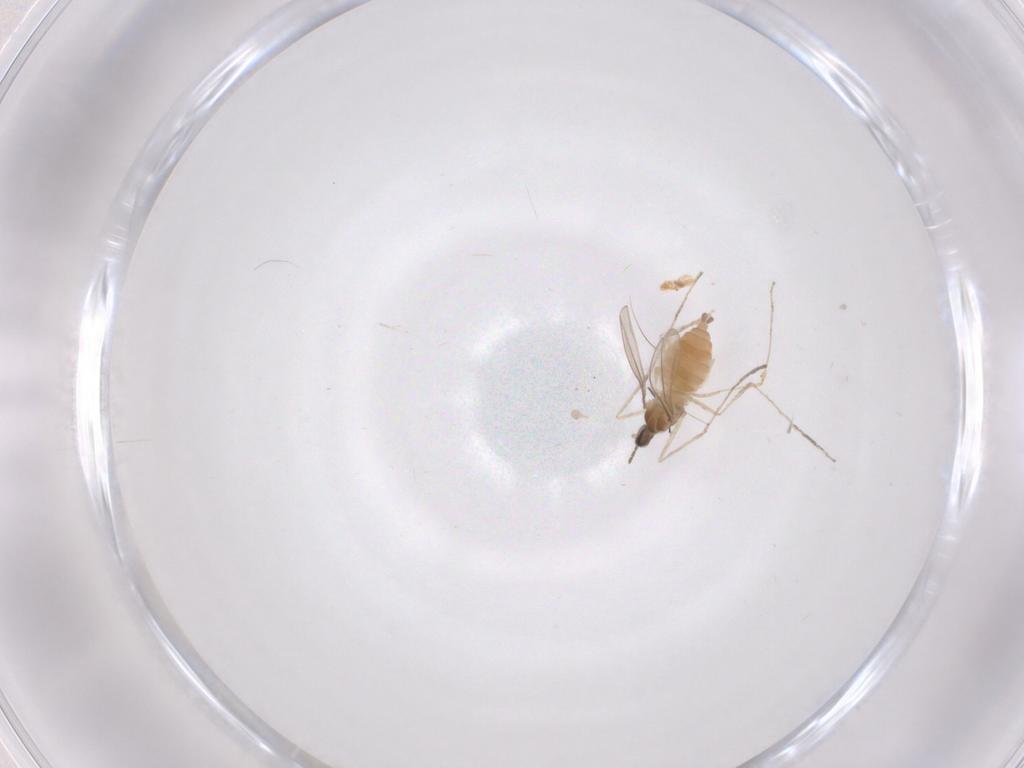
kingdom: Animalia
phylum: Arthropoda
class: Insecta
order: Diptera
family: Cecidomyiidae
